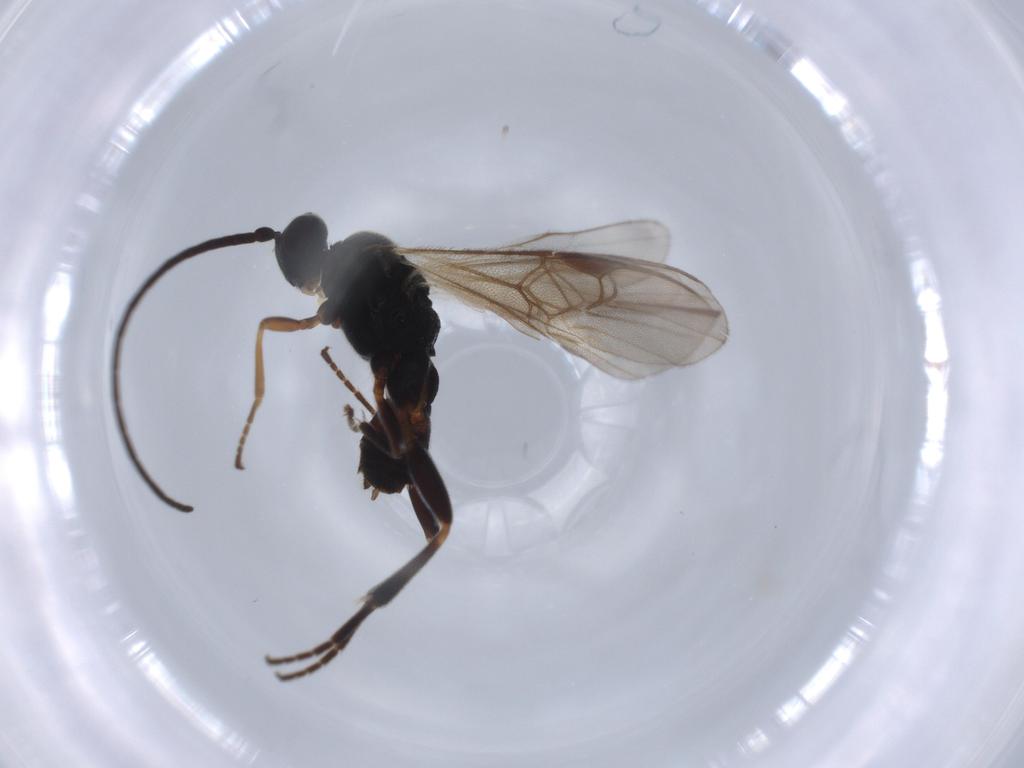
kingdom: Animalia
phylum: Arthropoda
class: Insecta
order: Hymenoptera
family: Braconidae
